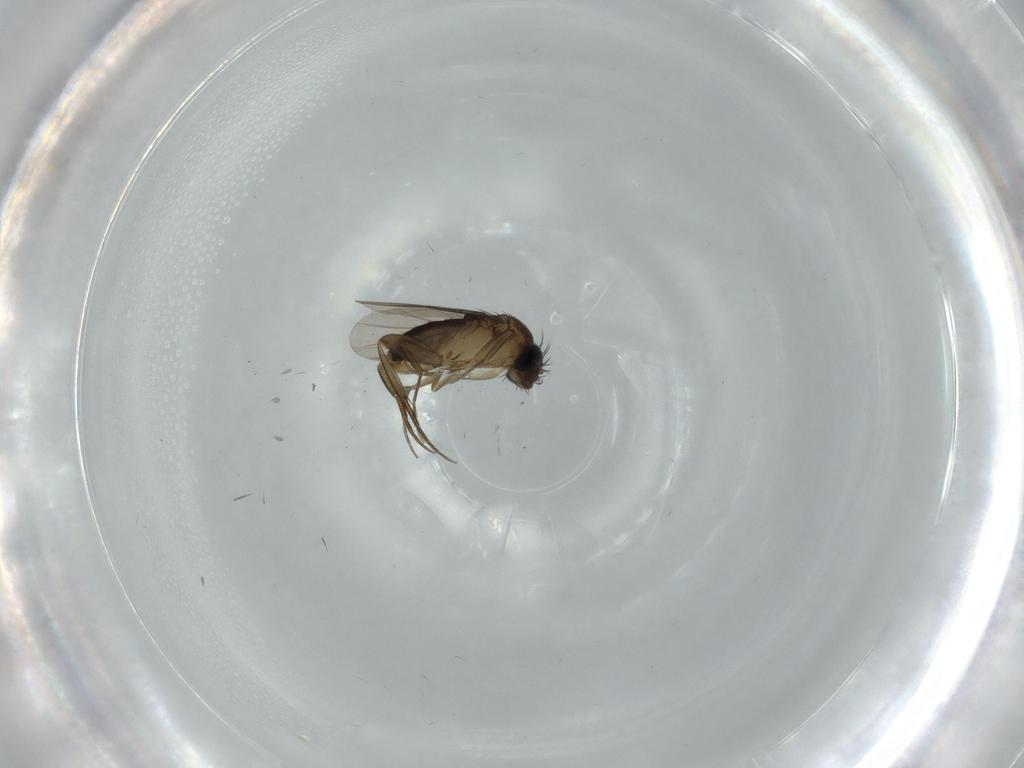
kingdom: Animalia
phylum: Arthropoda
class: Insecta
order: Diptera
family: Phoridae
